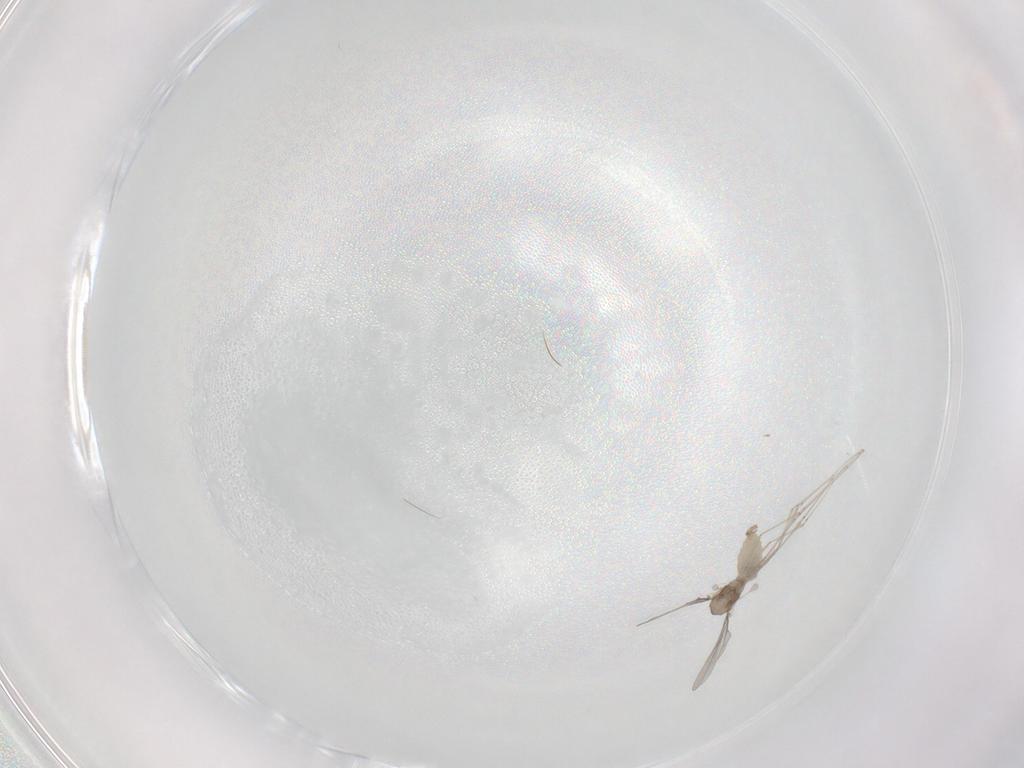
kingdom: Animalia
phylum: Arthropoda
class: Insecta
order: Diptera
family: Cecidomyiidae
